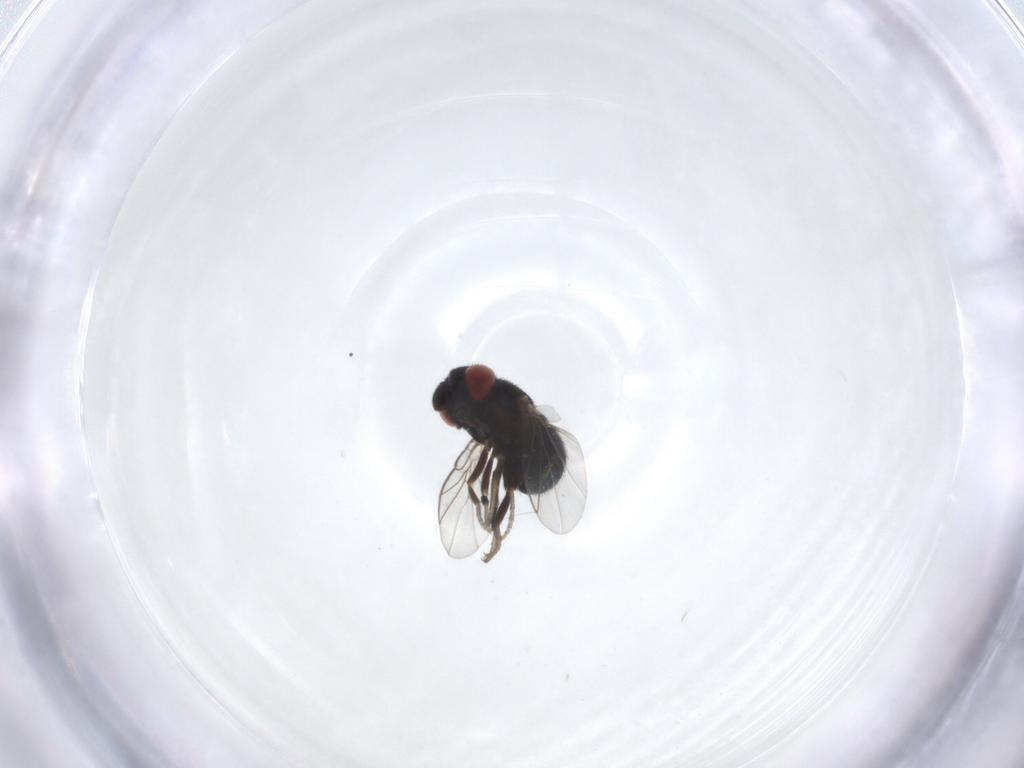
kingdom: Animalia
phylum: Arthropoda
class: Insecta
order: Diptera
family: Cryptochetidae
